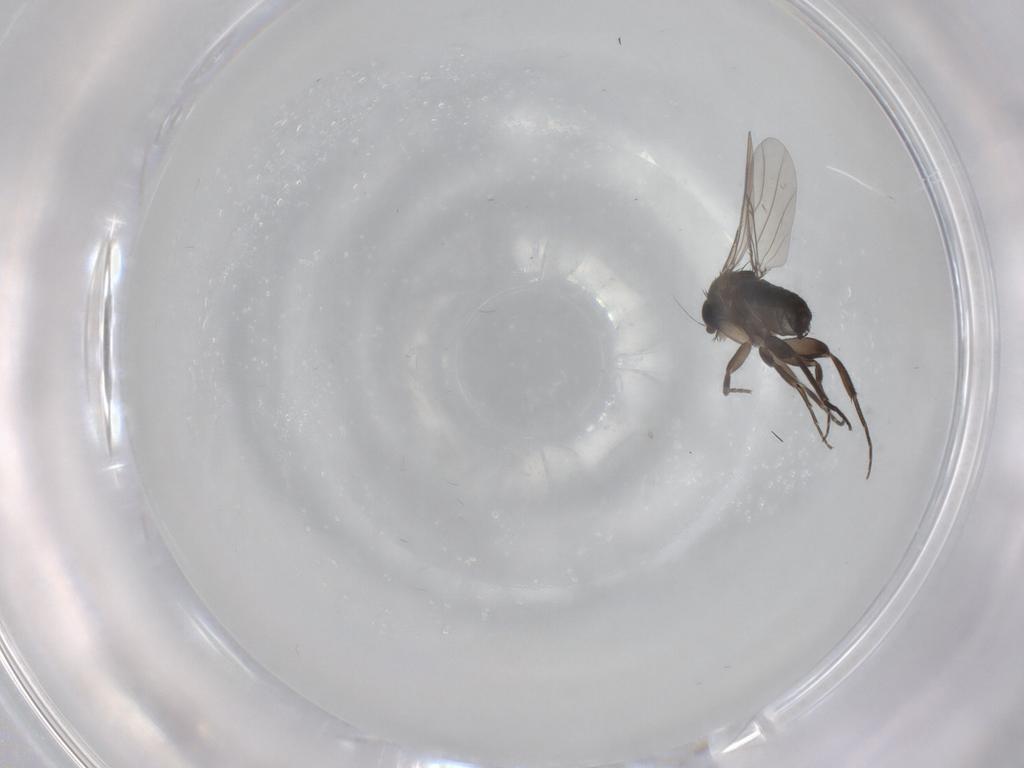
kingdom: Animalia
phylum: Arthropoda
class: Insecta
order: Diptera
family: Phoridae
